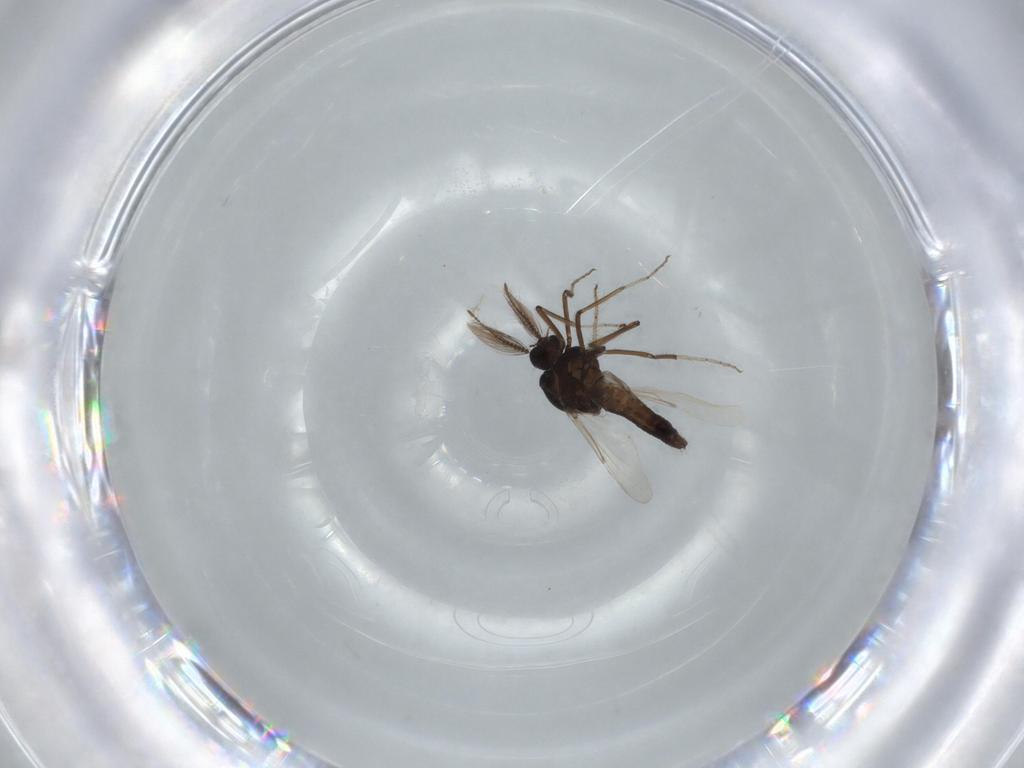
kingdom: Animalia
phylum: Arthropoda
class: Insecta
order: Diptera
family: Chironomidae
